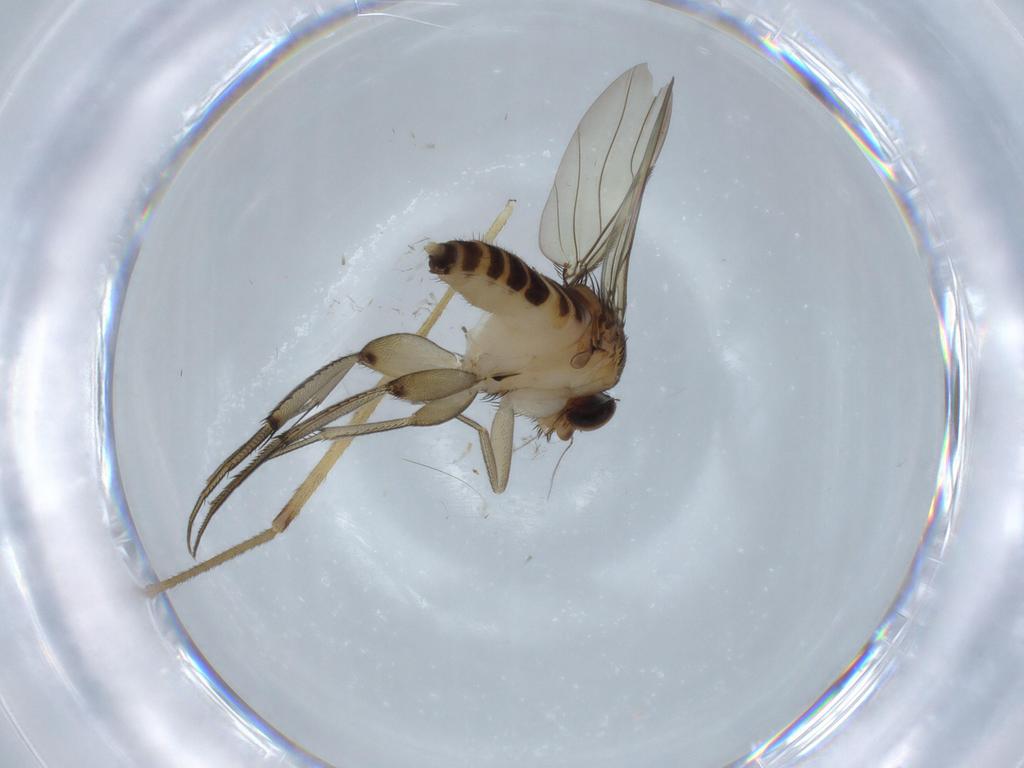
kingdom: Animalia
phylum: Arthropoda
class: Insecta
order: Diptera
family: Limoniidae
